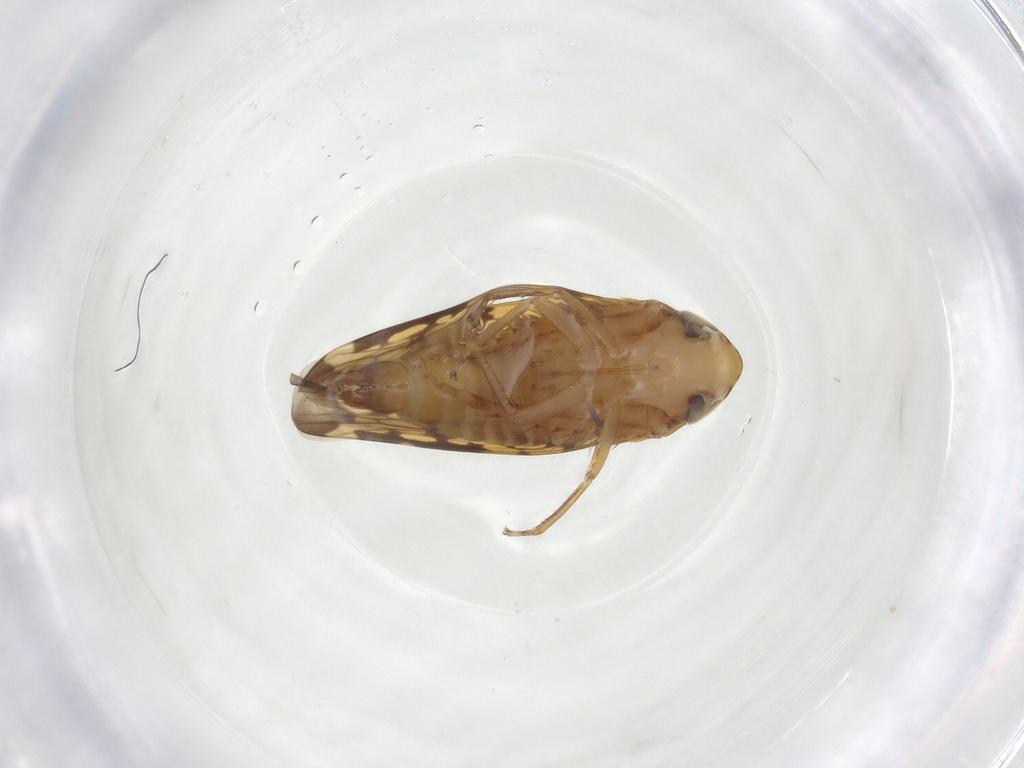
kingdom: Animalia
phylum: Arthropoda
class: Insecta
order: Hemiptera
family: Cicadellidae
